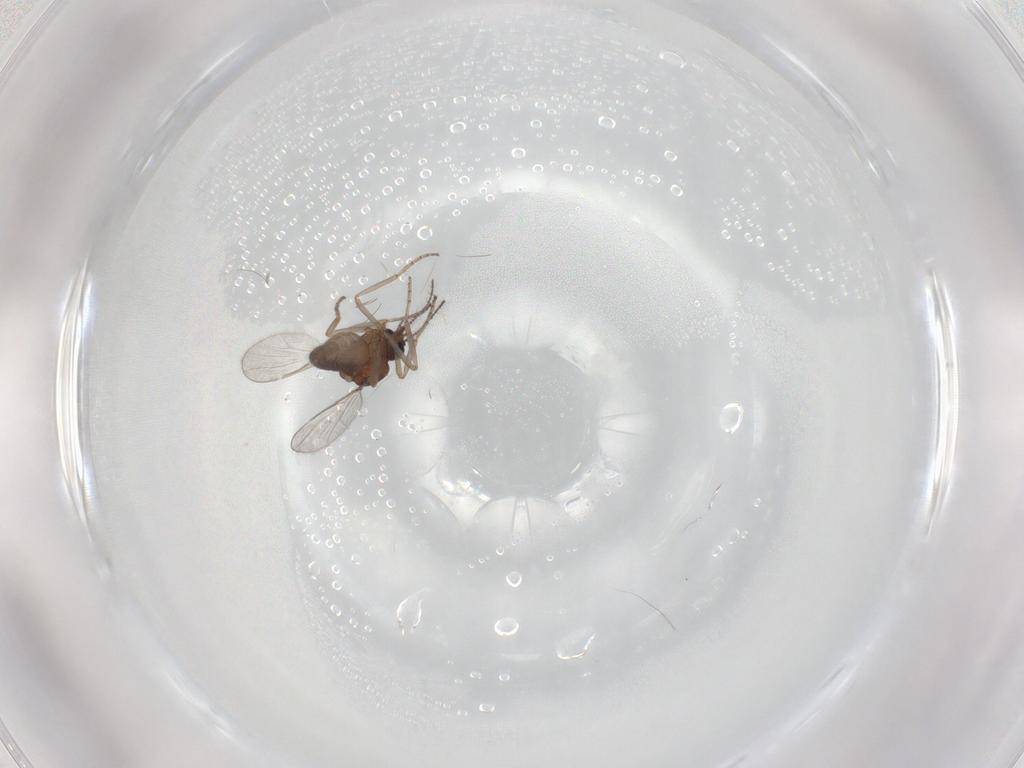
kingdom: Animalia
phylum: Arthropoda
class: Insecta
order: Diptera
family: Ceratopogonidae
